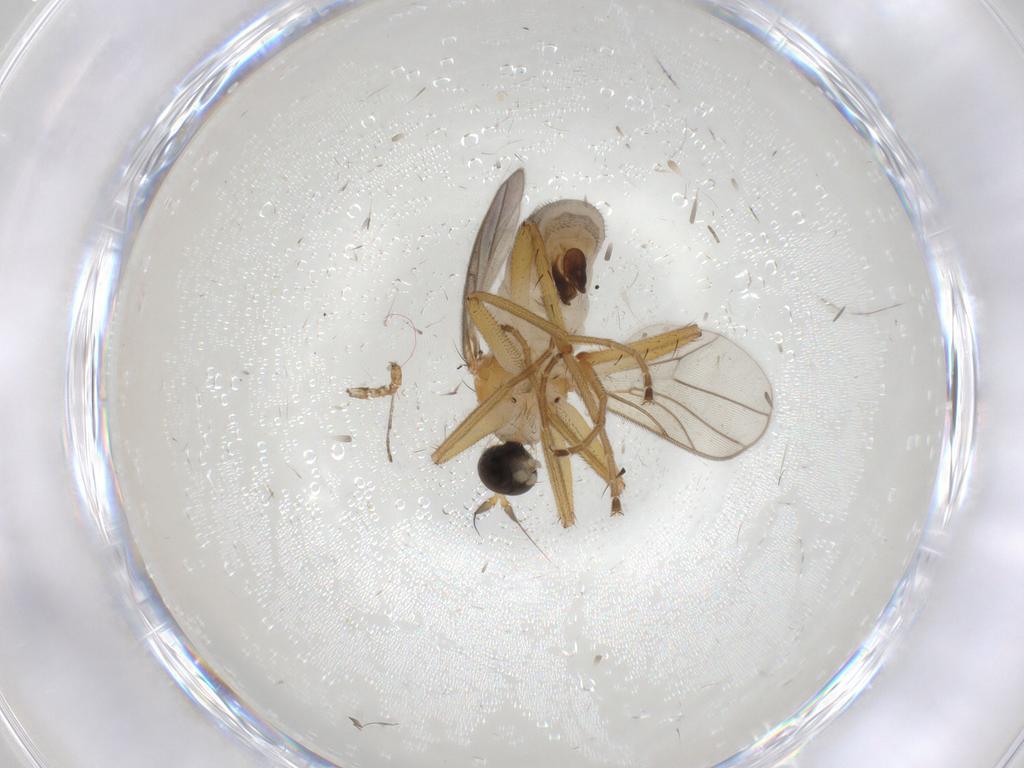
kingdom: Animalia
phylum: Arthropoda
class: Insecta
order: Diptera
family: Hybotidae
